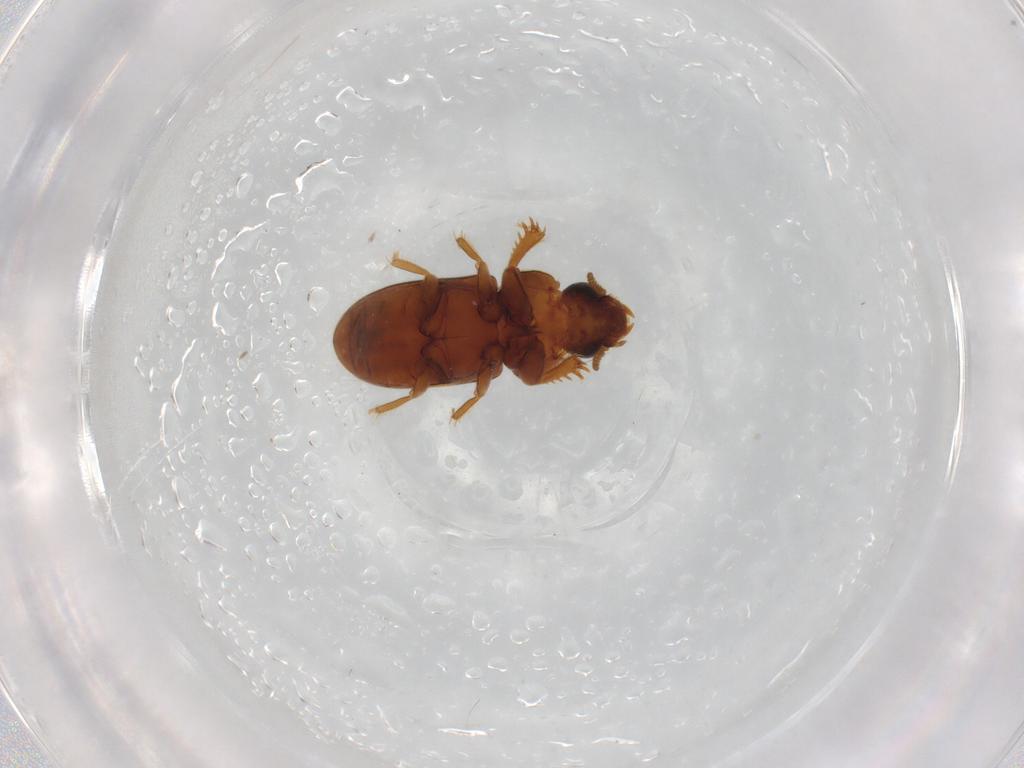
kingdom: Animalia
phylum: Arthropoda
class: Insecta
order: Coleoptera
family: Heteroceridae
